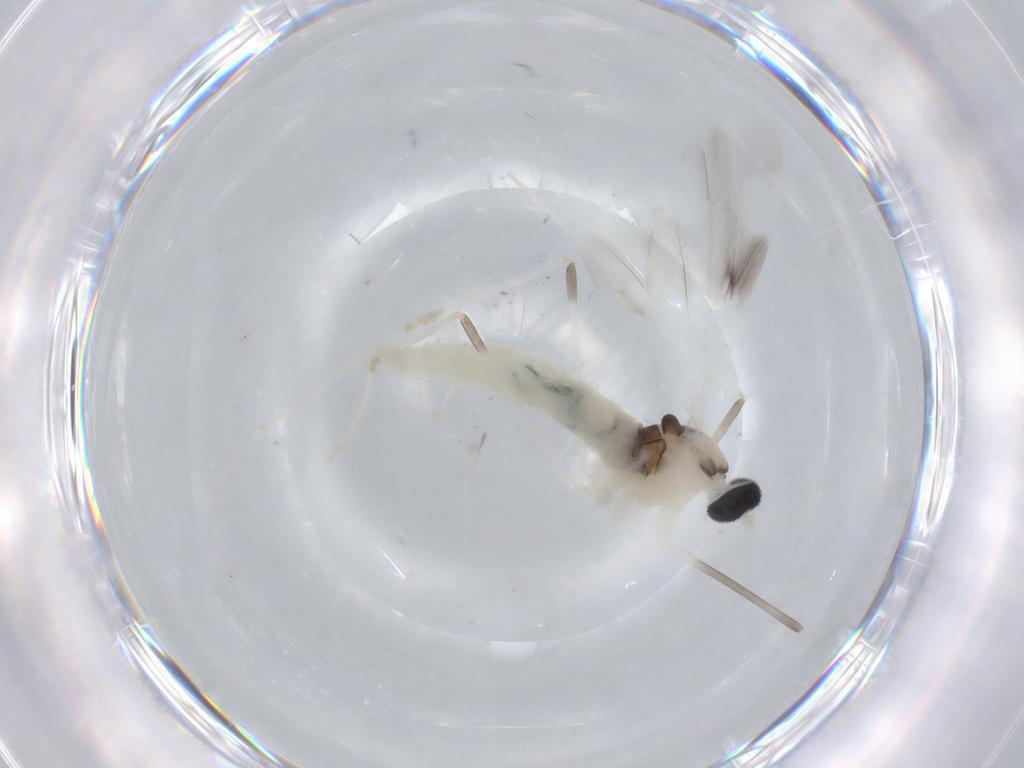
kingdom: Animalia
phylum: Arthropoda
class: Insecta
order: Diptera
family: Cecidomyiidae
